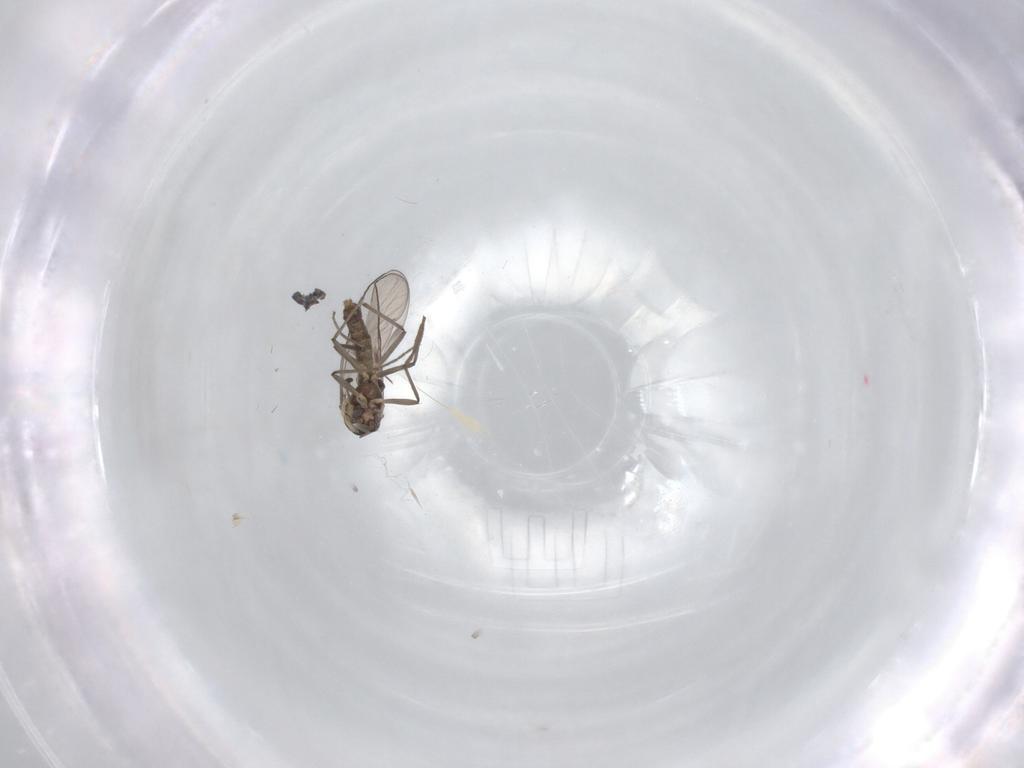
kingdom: Animalia
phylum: Arthropoda
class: Insecta
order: Diptera
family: Chironomidae
